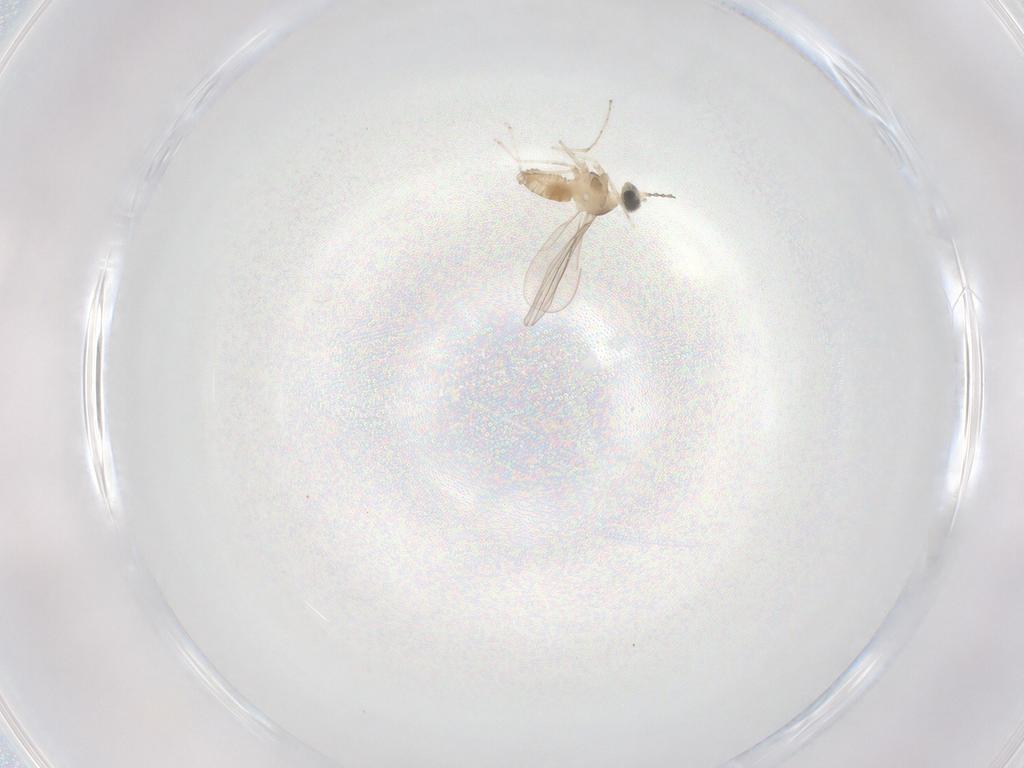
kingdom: Animalia
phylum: Arthropoda
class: Insecta
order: Diptera
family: Cecidomyiidae
